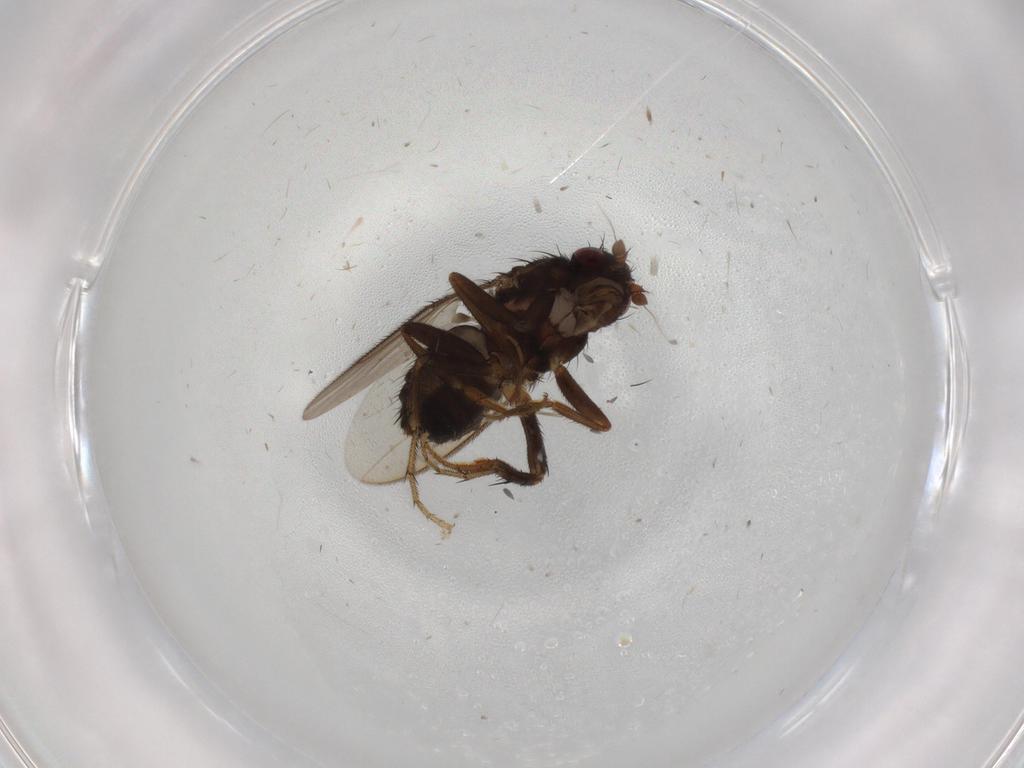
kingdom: Animalia
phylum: Arthropoda
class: Insecta
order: Diptera
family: Sphaeroceridae
